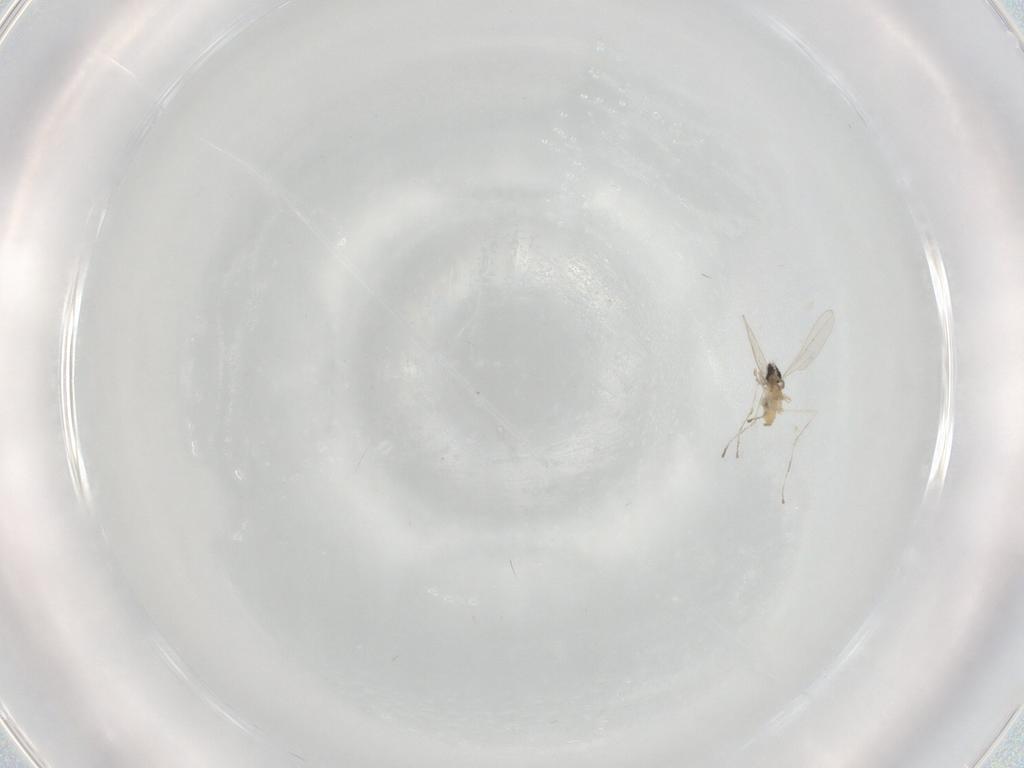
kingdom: Animalia
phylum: Arthropoda
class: Insecta
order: Diptera
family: Cecidomyiidae
